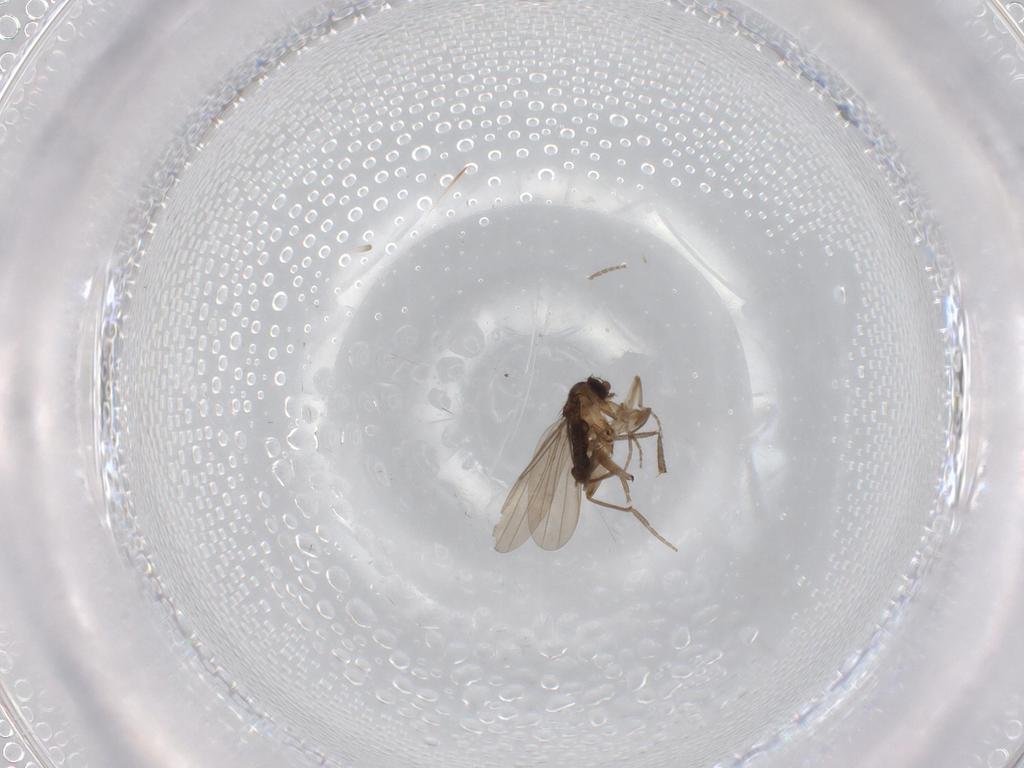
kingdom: Animalia
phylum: Arthropoda
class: Insecta
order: Diptera
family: Phoridae
